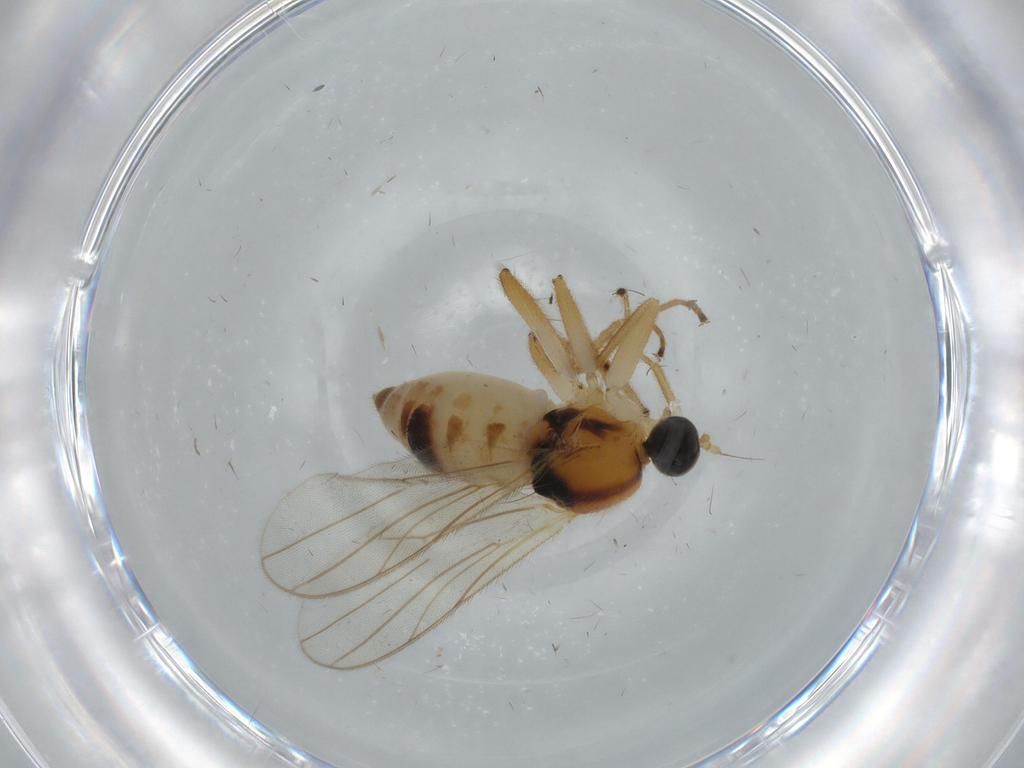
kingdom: Animalia
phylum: Arthropoda
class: Insecta
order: Diptera
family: Hybotidae
